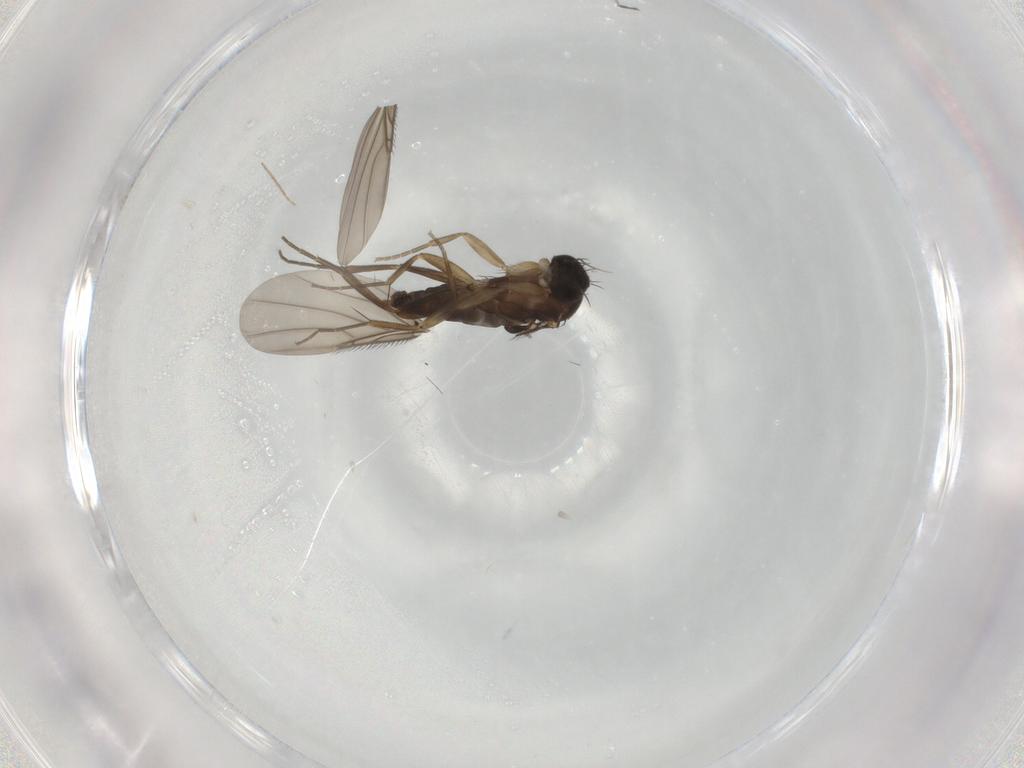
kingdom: Animalia
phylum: Arthropoda
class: Insecta
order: Diptera
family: Phoridae
